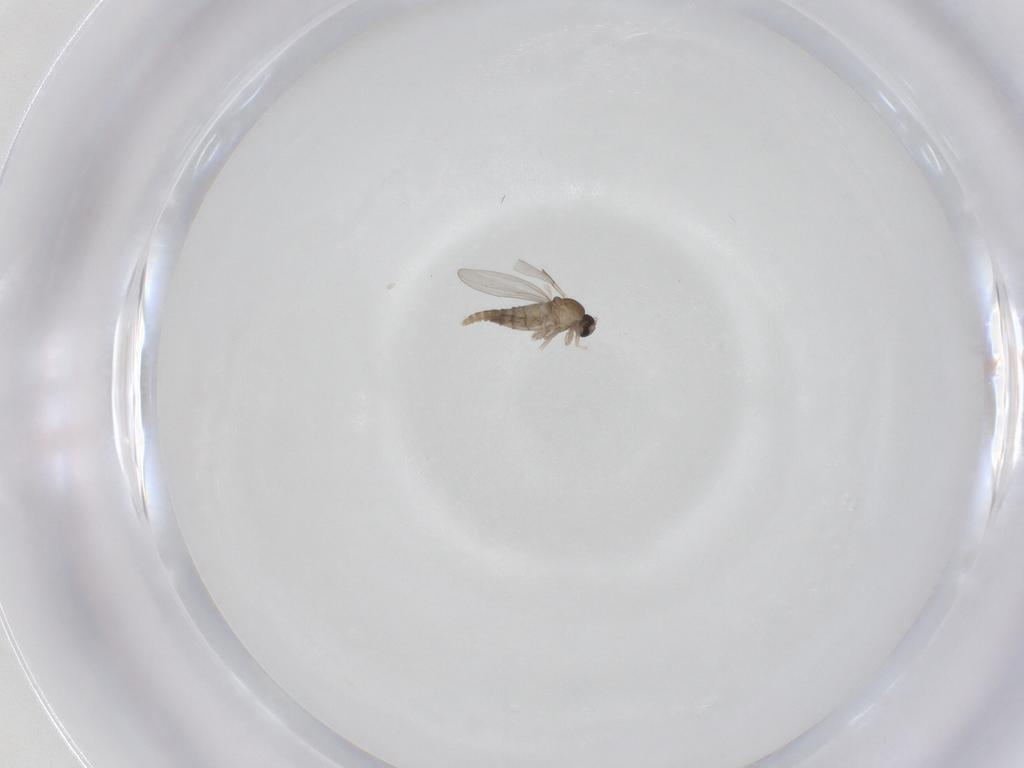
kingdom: Animalia
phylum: Arthropoda
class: Insecta
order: Diptera
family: Cecidomyiidae
